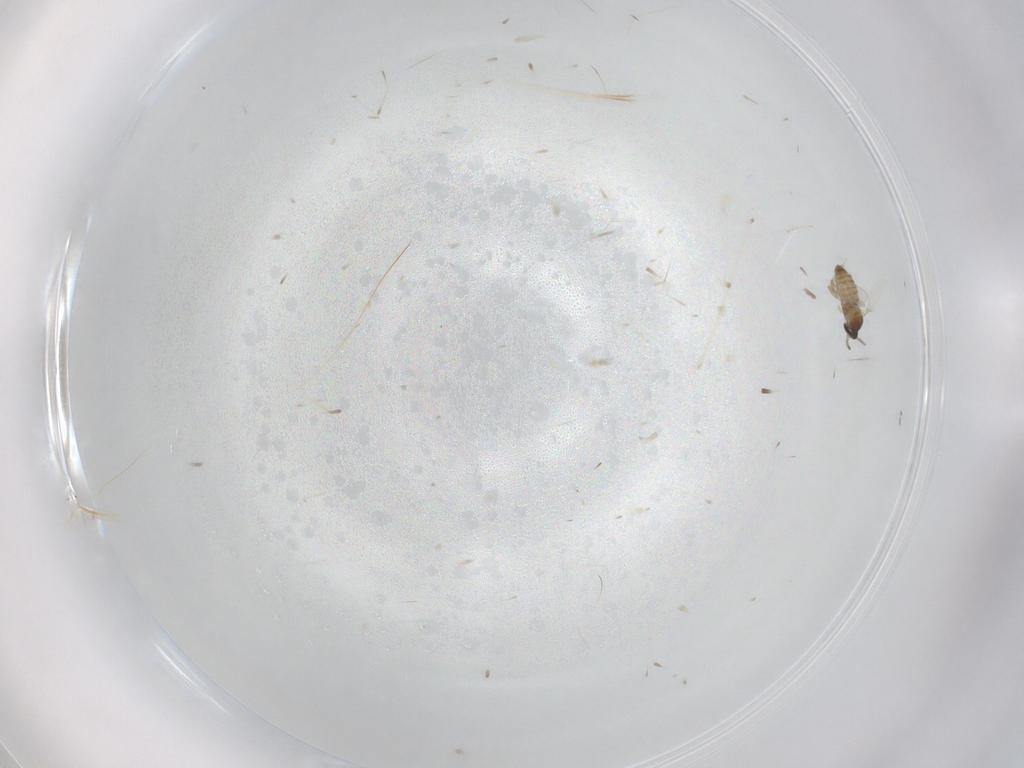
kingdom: Animalia
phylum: Arthropoda
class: Insecta
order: Diptera
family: Cecidomyiidae
